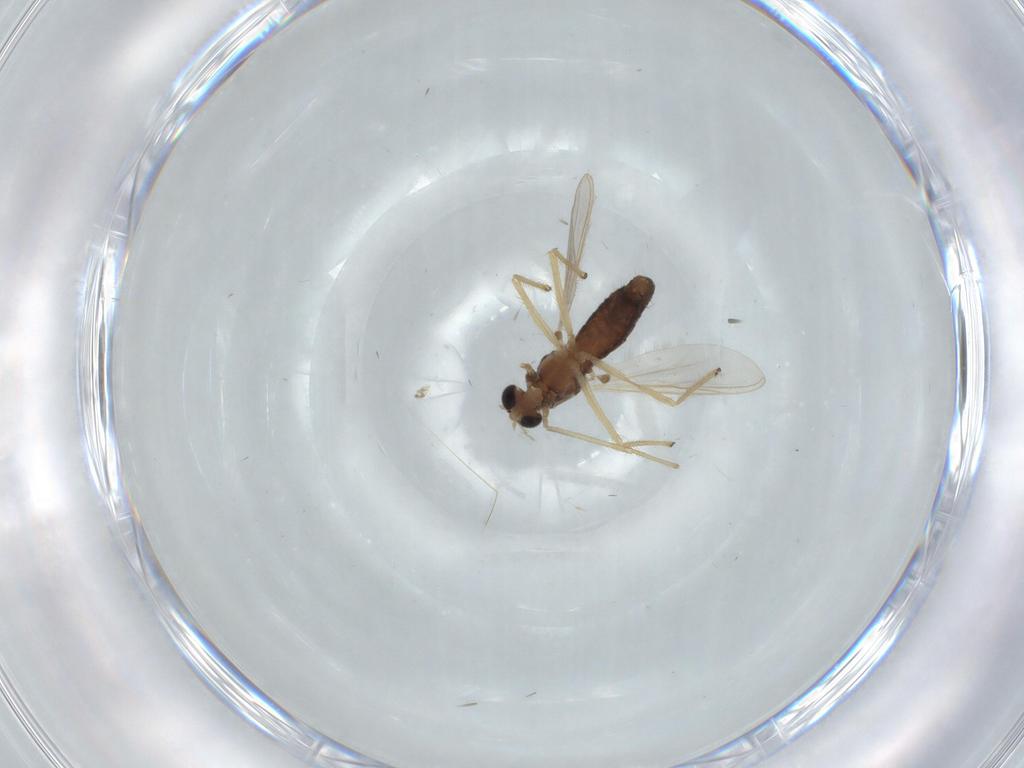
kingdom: Animalia
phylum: Arthropoda
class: Insecta
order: Diptera
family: Chironomidae
